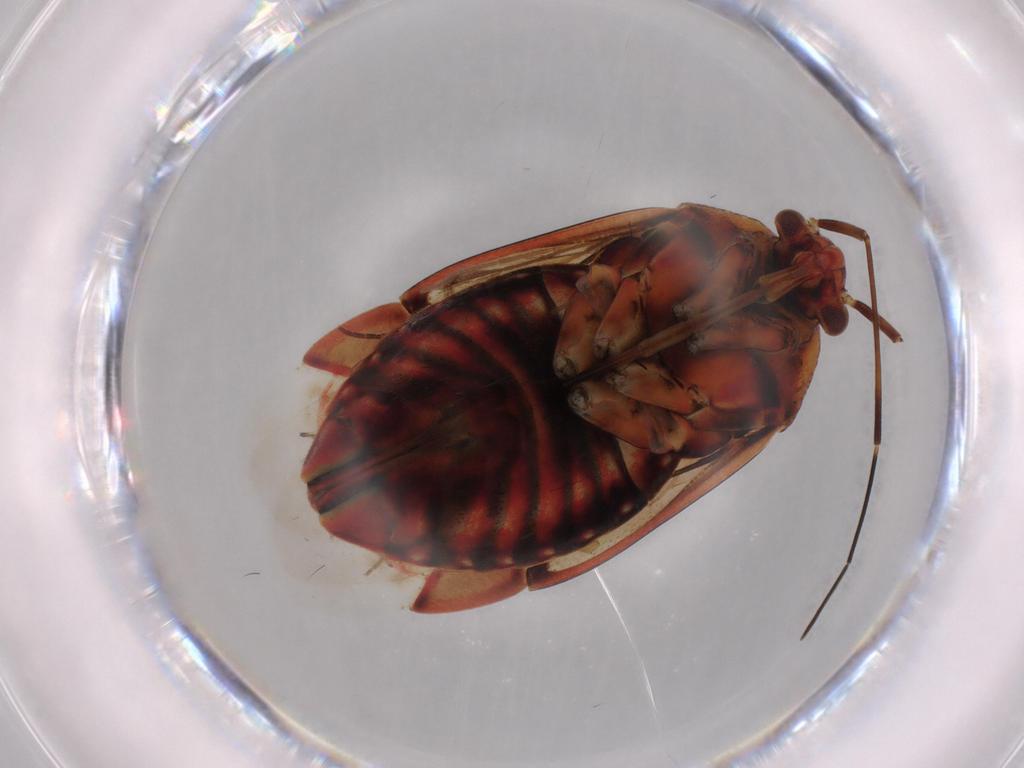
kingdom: Animalia
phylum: Arthropoda
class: Insecta
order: Hemiptera
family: Miridae
